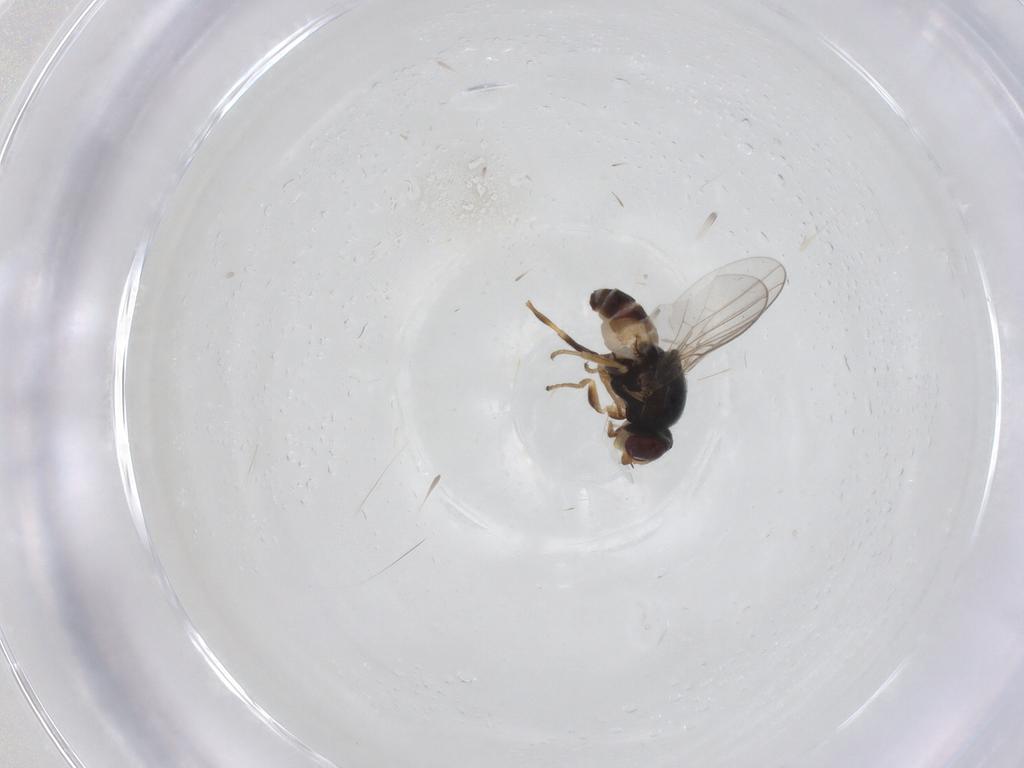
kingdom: Animalia
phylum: Arthropoda
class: Insecta
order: Diptera
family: Chloropidae
